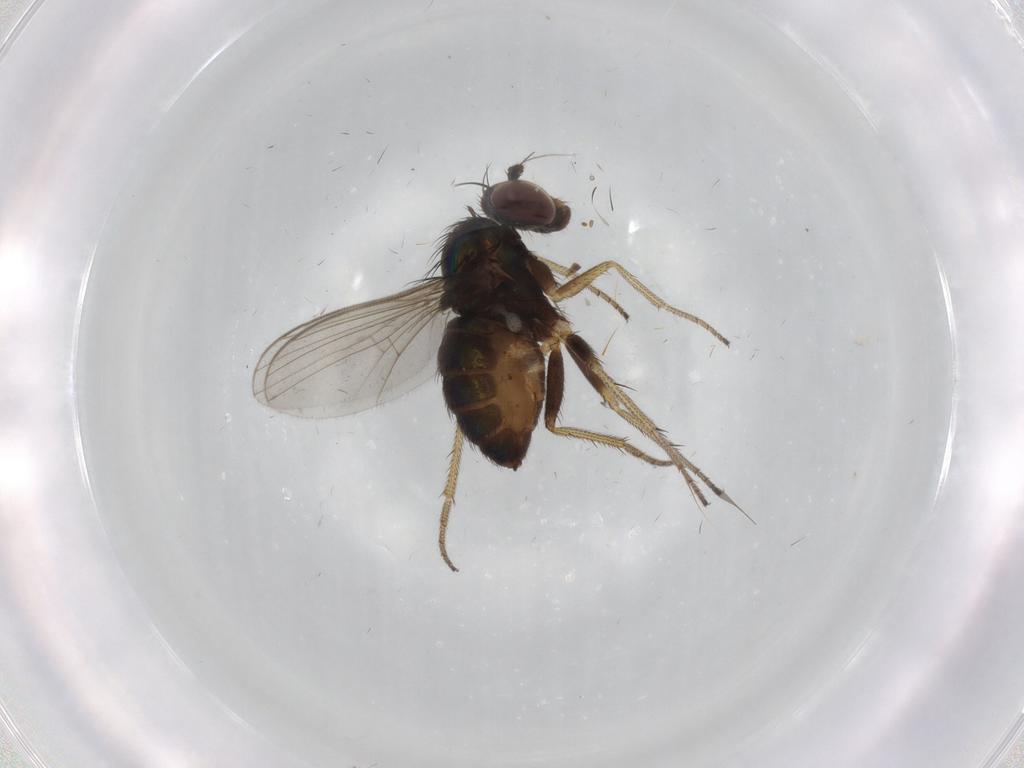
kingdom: Animalia
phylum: Arthropoda
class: Insecta
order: Diptera
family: Dolichopodidae
